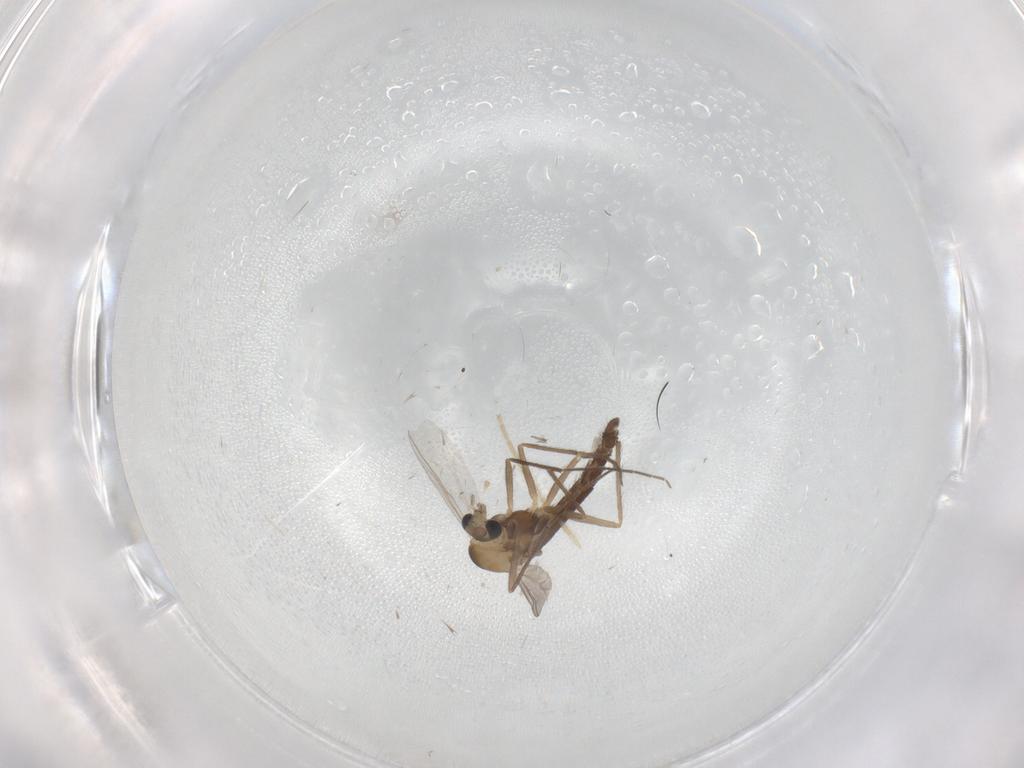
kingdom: Animalia
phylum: Arthropoda
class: Insecta
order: Diptera
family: Chironomidae
